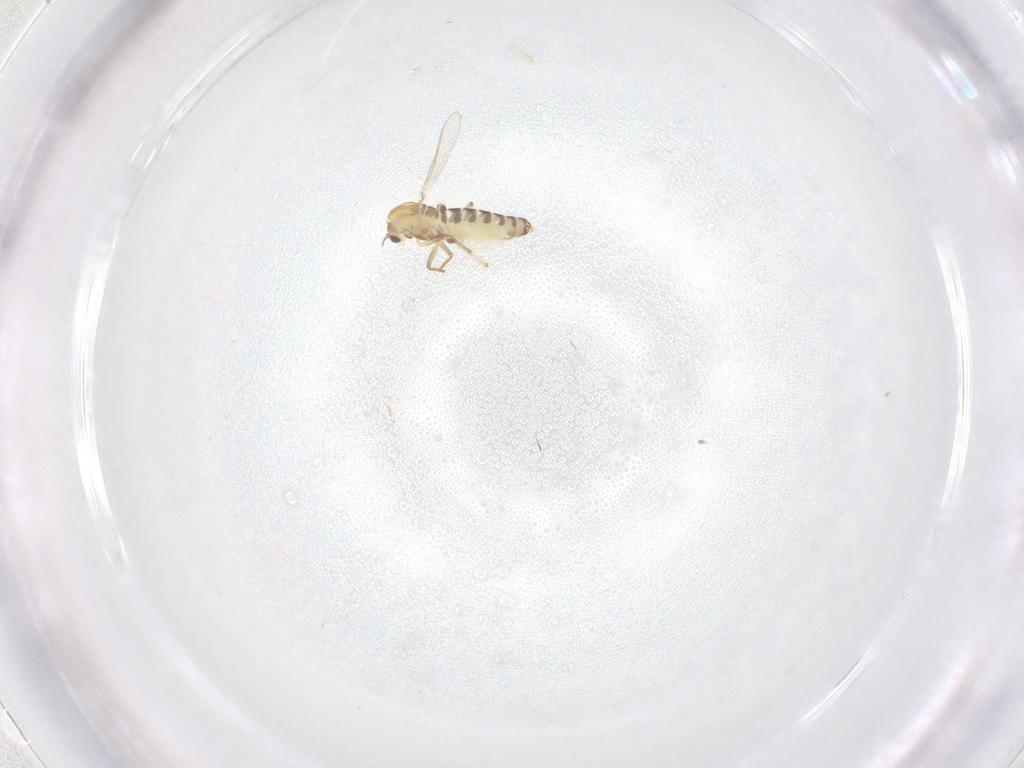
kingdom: Animalia
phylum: Arthropoda
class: Insecta
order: Diptera
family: Chironomidae
